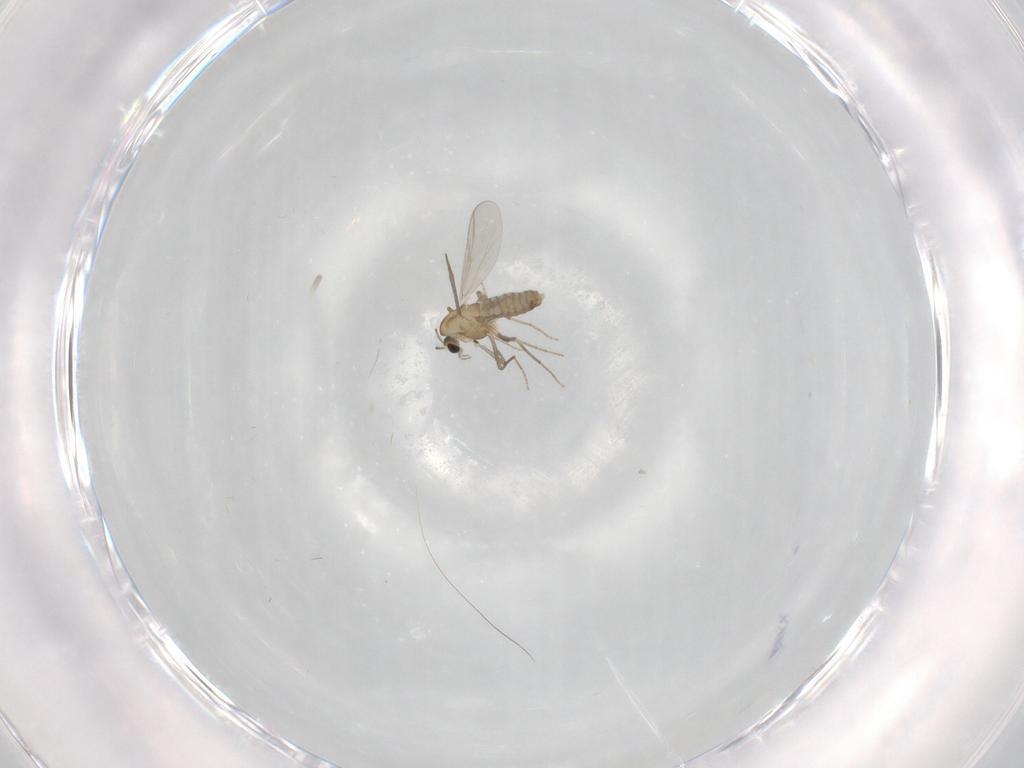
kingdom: Animalia
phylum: Arthropoda
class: Insecta
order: Diptera
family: Chironomidae
